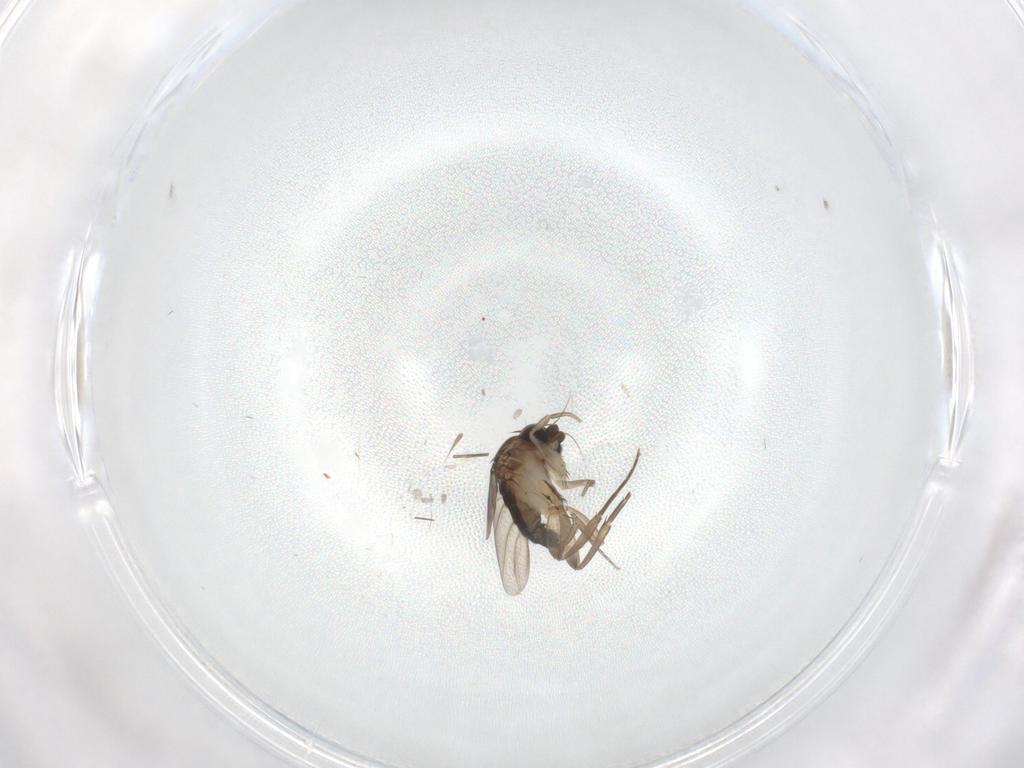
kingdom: Animalia
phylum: Arthropoda
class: Insecta
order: Diptera
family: Phoridae
